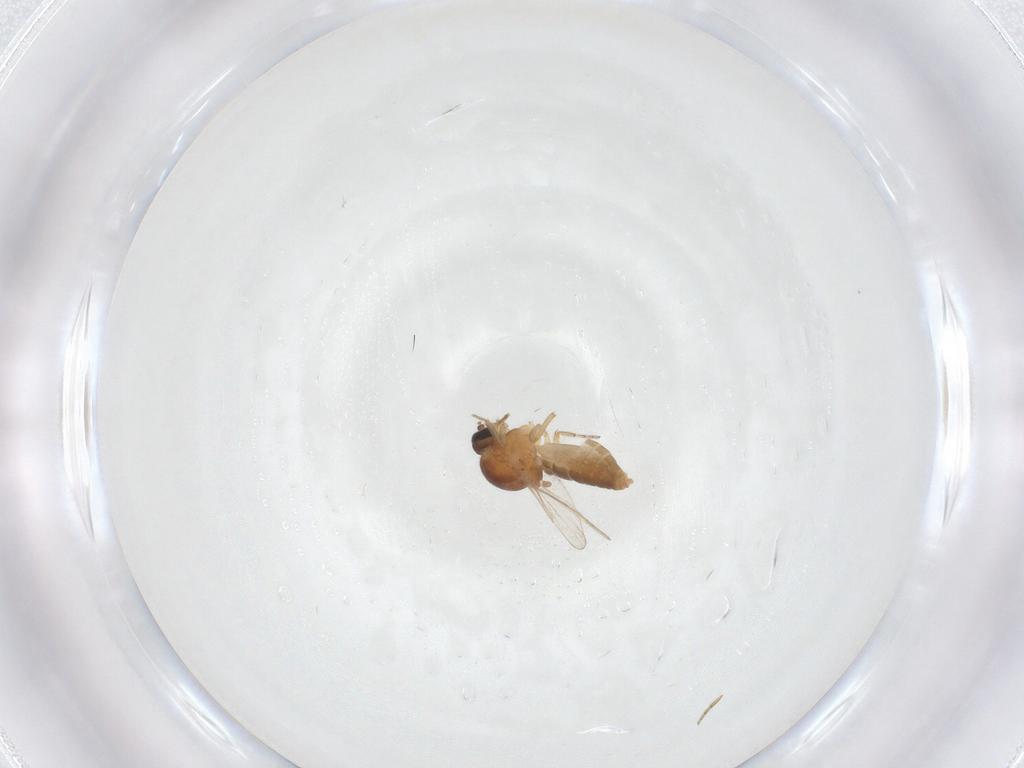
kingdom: Animalia
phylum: Arthropoda
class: Insecta
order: Diptera
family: Ceratopogonidae
